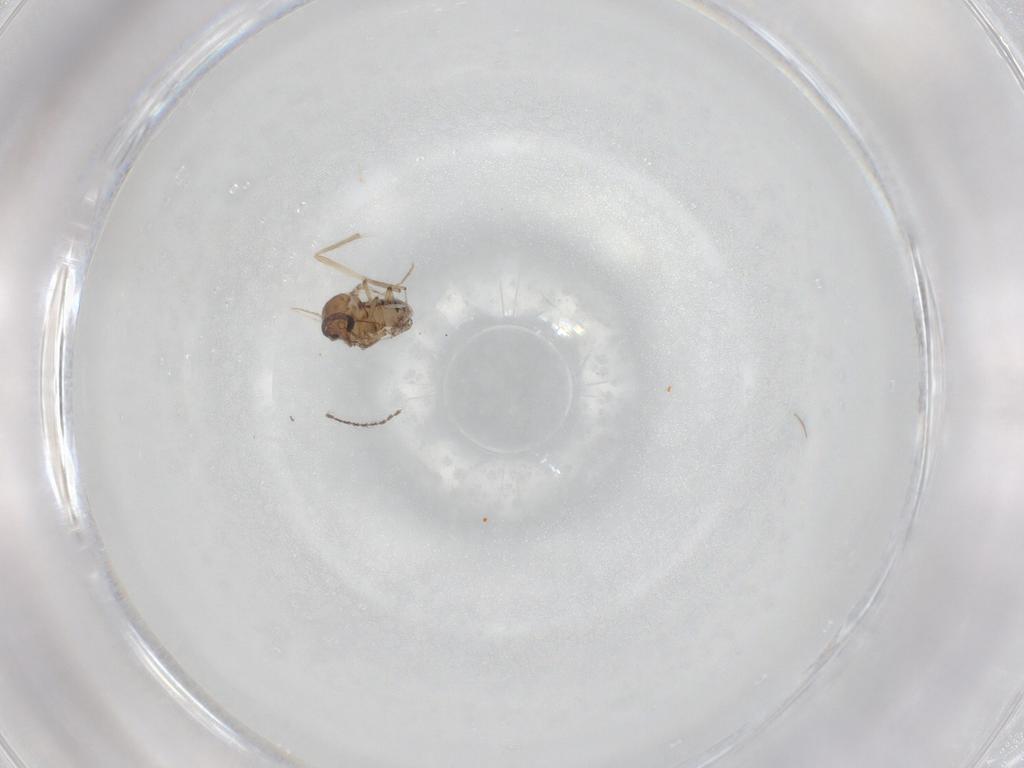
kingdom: Animalia
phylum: Arthropoda
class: Insecta
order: Diptera
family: Ceratopogonidae
